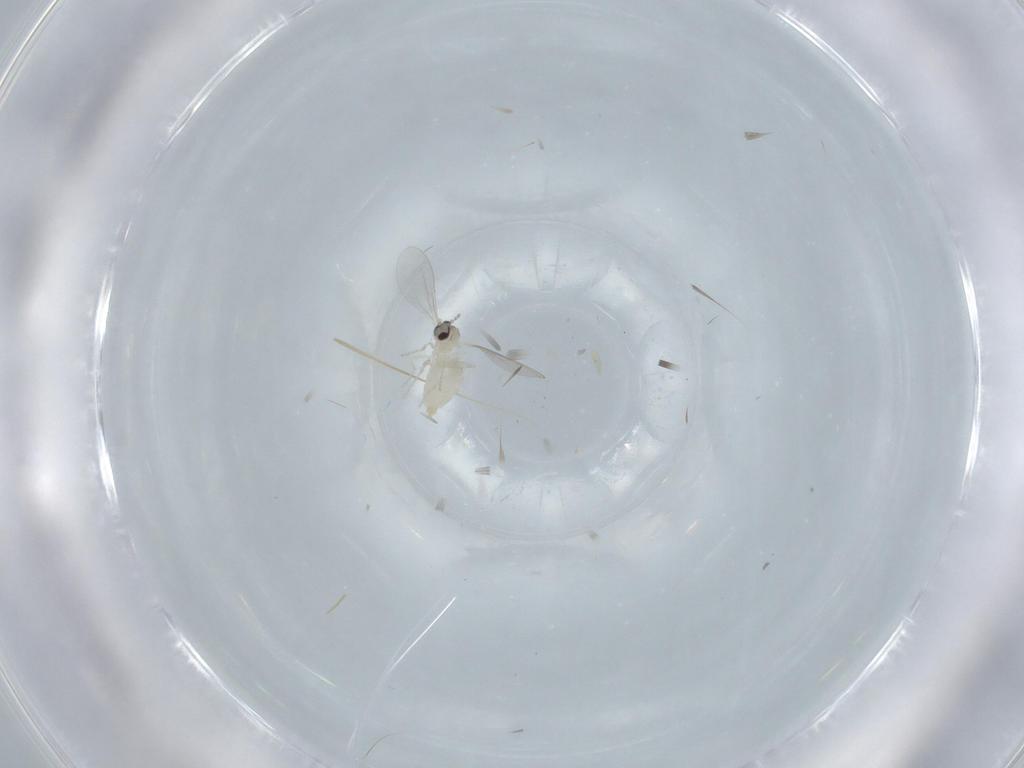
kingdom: Animalia
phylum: Arthropoda
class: Insecta
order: Diptera
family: Cecidomyiidae
